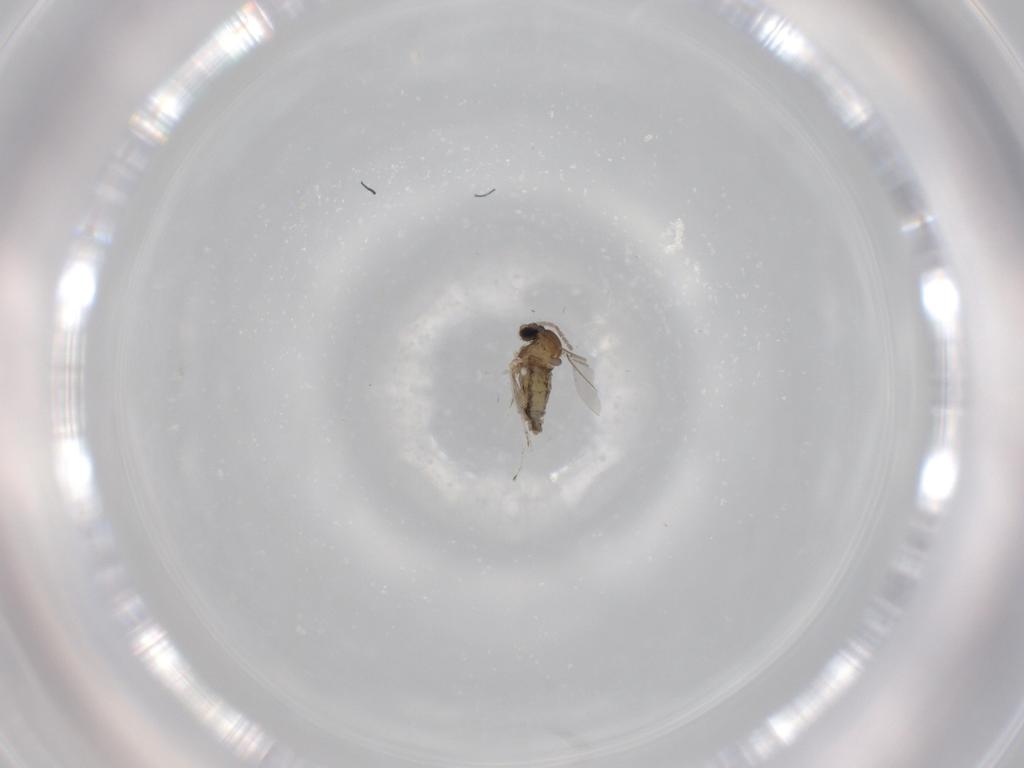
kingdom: Animalia
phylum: Arthropoda
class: Insecta
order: Diptera
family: Cecidomyiidae
